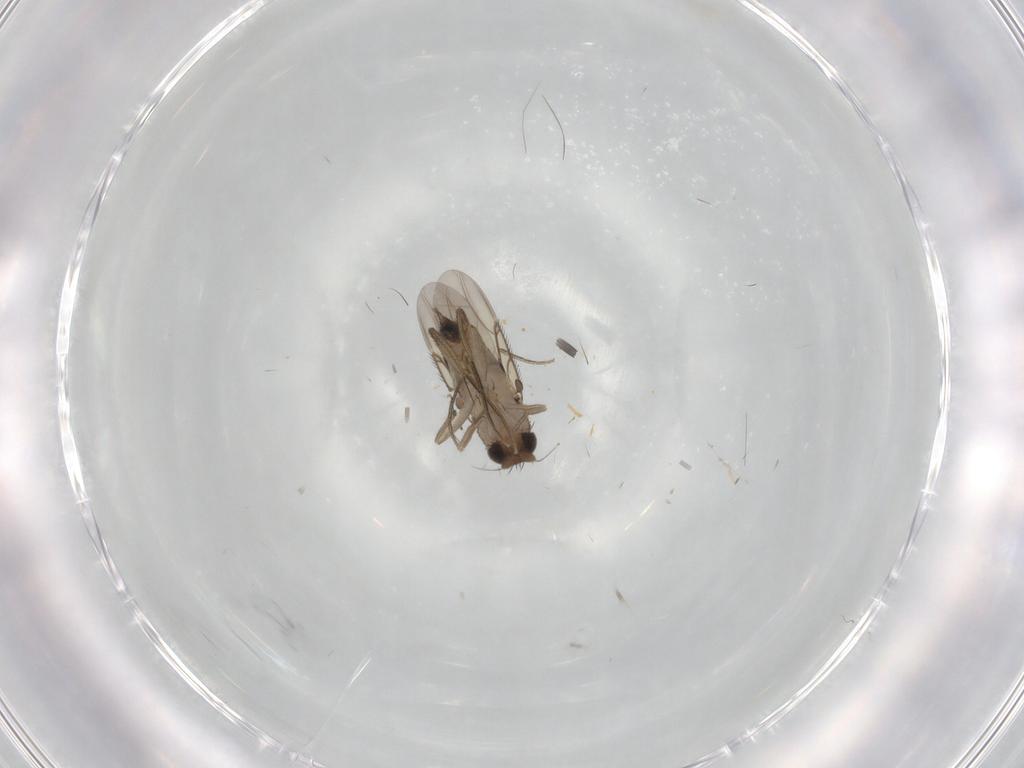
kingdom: Animalia
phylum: Arthropoda
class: Insecta
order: Diptera
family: Phoridae
